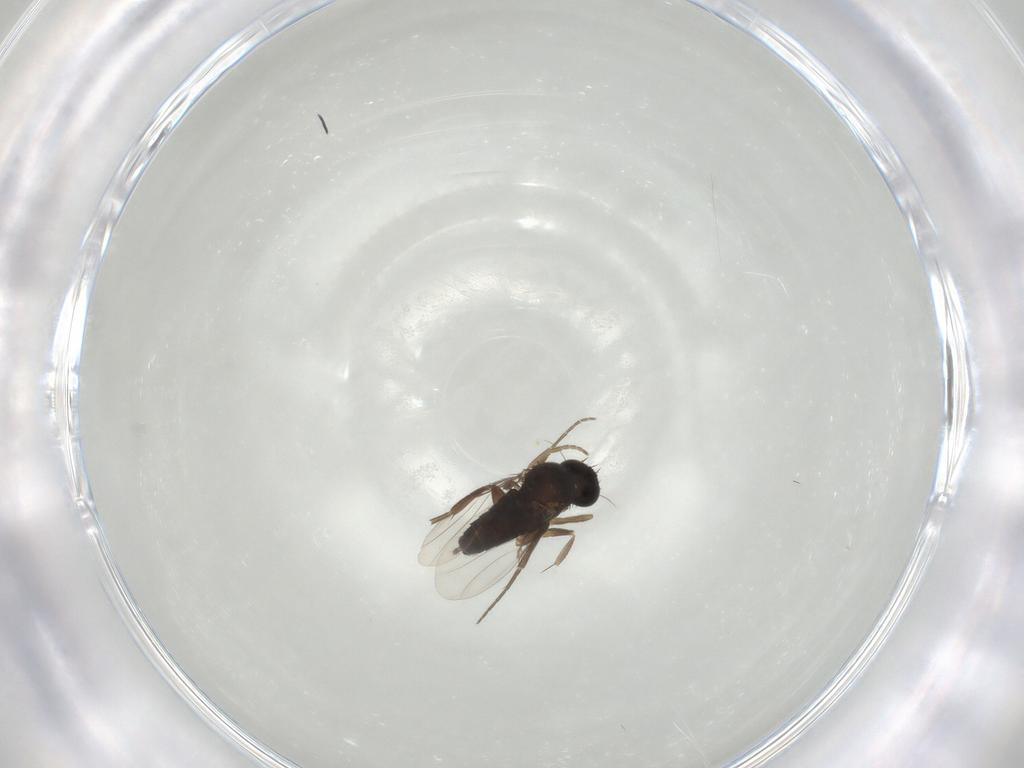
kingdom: Animalia
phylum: Arthropoda
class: Insecta
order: Diptera
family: Phoridae
